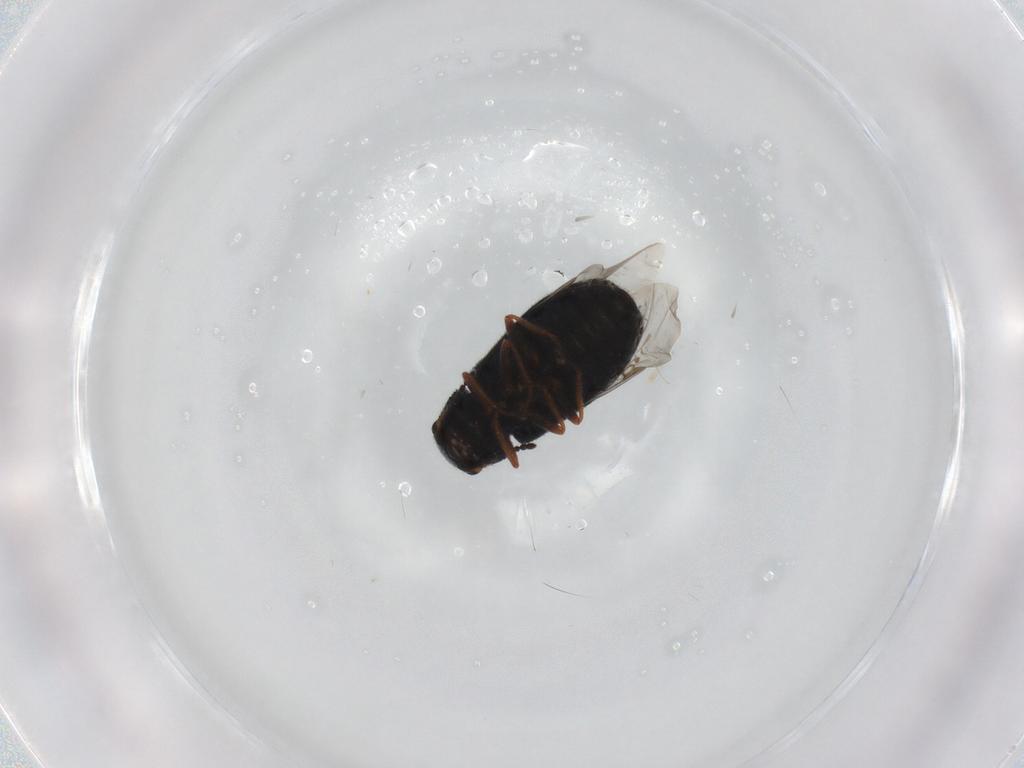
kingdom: Animalia
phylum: Arthropoda
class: Insecta
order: Coleoptera
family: Melyridae
